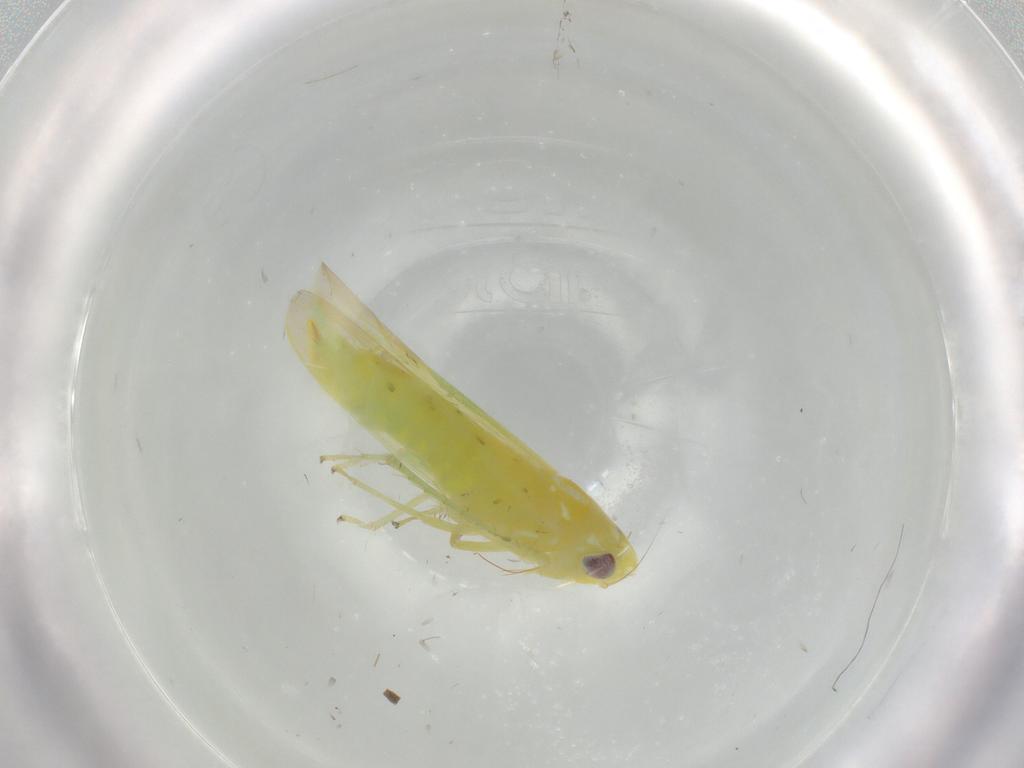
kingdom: Animalia
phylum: Arthropoda
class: Insecta
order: Hemiptera
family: Cicadellidae
